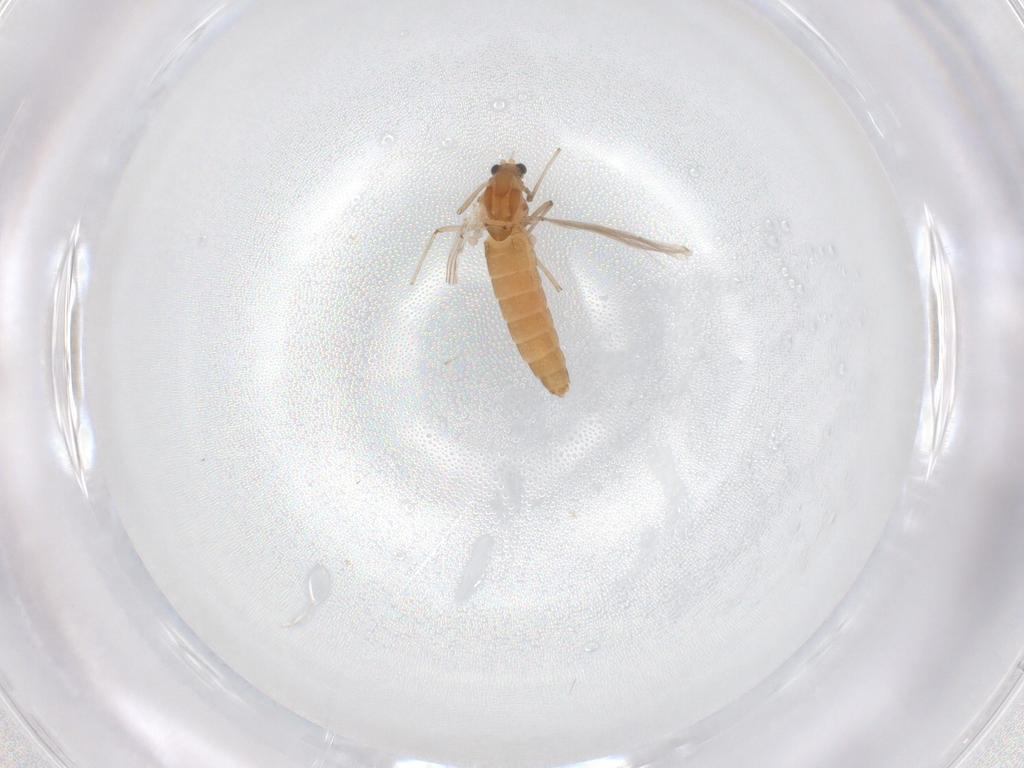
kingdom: Animalia
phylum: Arthropoda
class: Insecta
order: Diptera
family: Chironomidae
